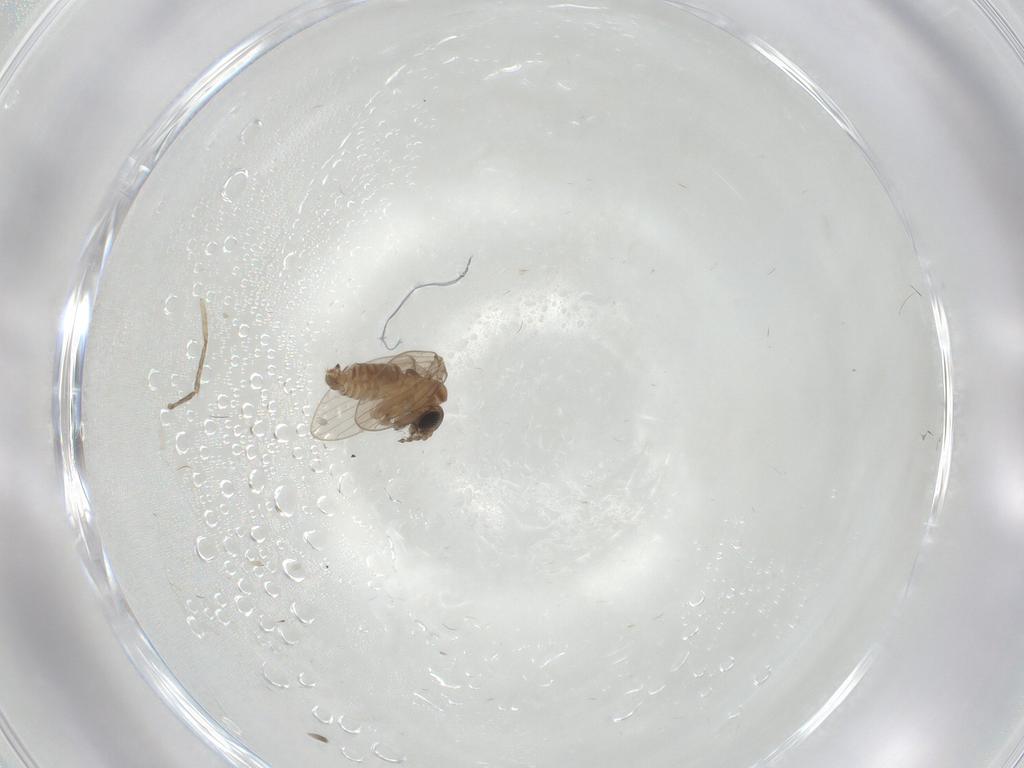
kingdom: Animalia
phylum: Arthropoda
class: Insecta
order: Diptera
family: Psychodidae
